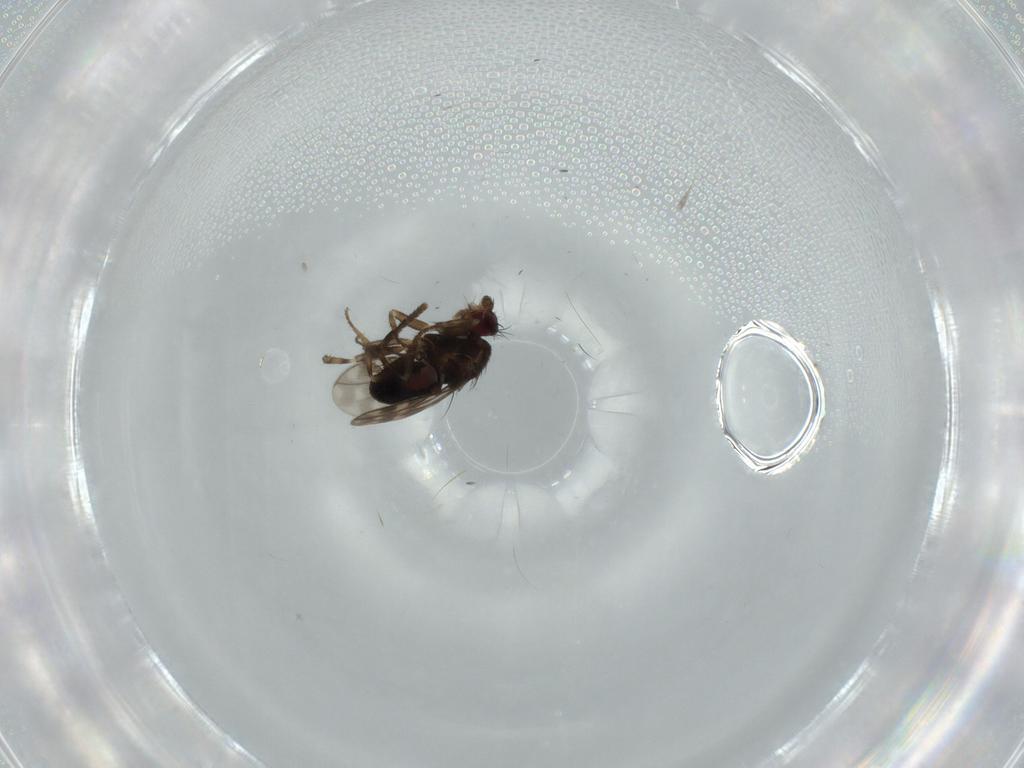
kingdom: Animalia
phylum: Arthropoda
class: Insecta
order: Diptera
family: Sphaeroceridae
